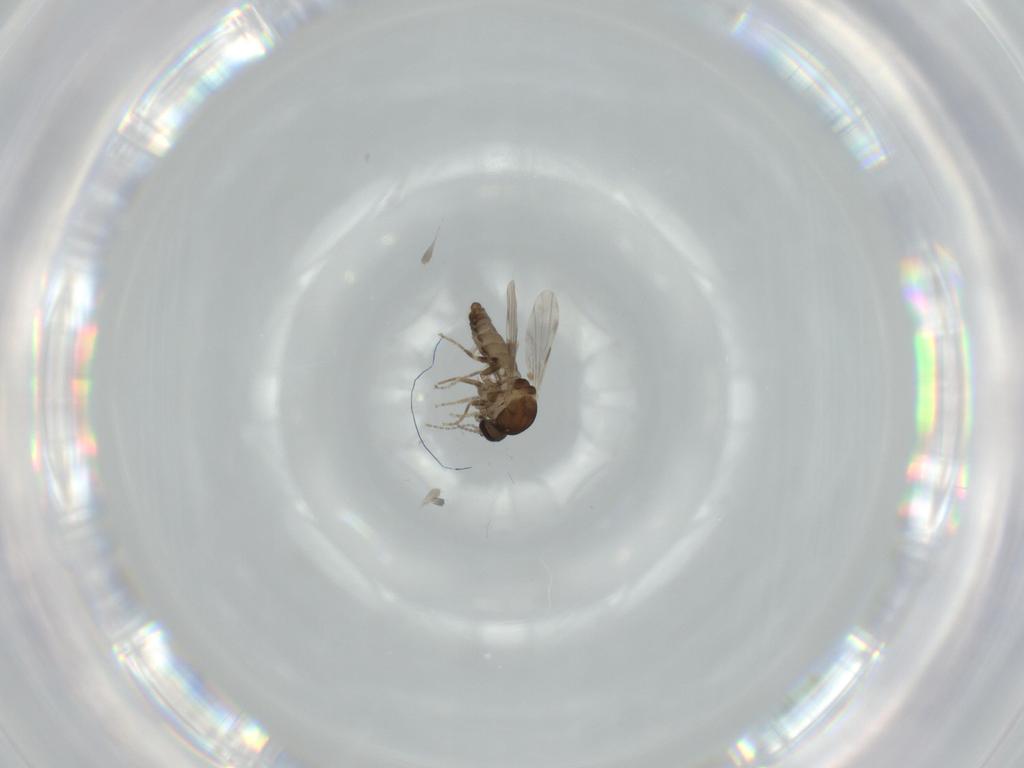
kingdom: Animalia
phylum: Arthropoda
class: Insecta
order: Diptera
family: Ceratopogonidae
